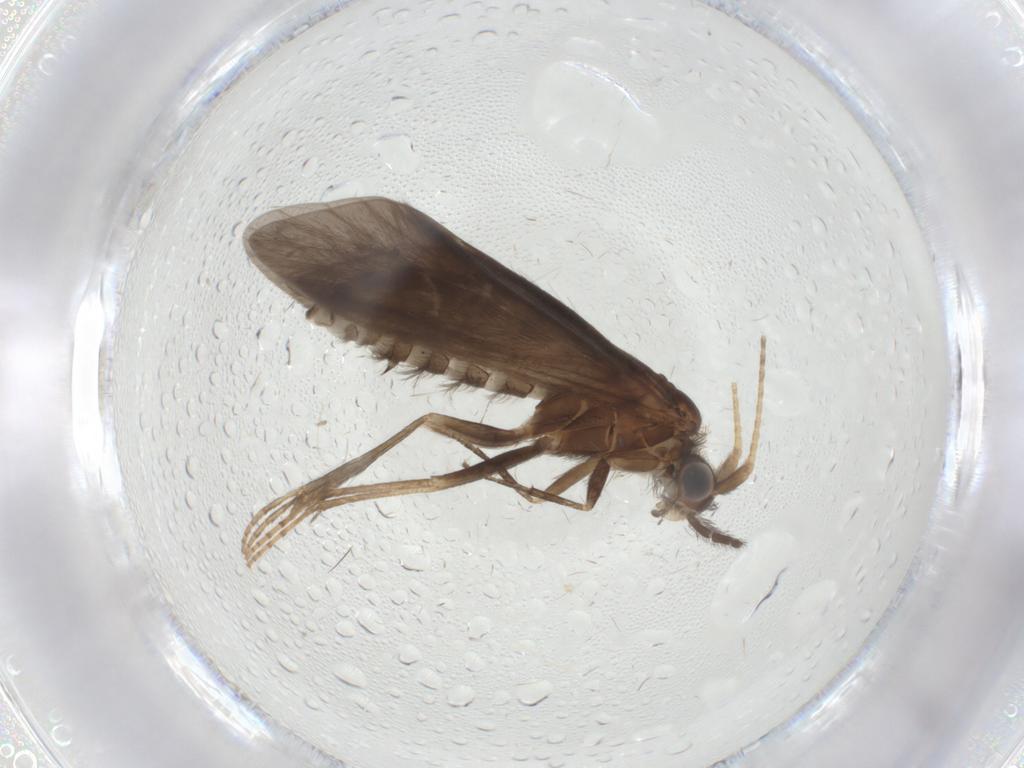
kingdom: Animalia
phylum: Arthropoda
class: Insecta
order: Trichoptera
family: Helicopsychidae
